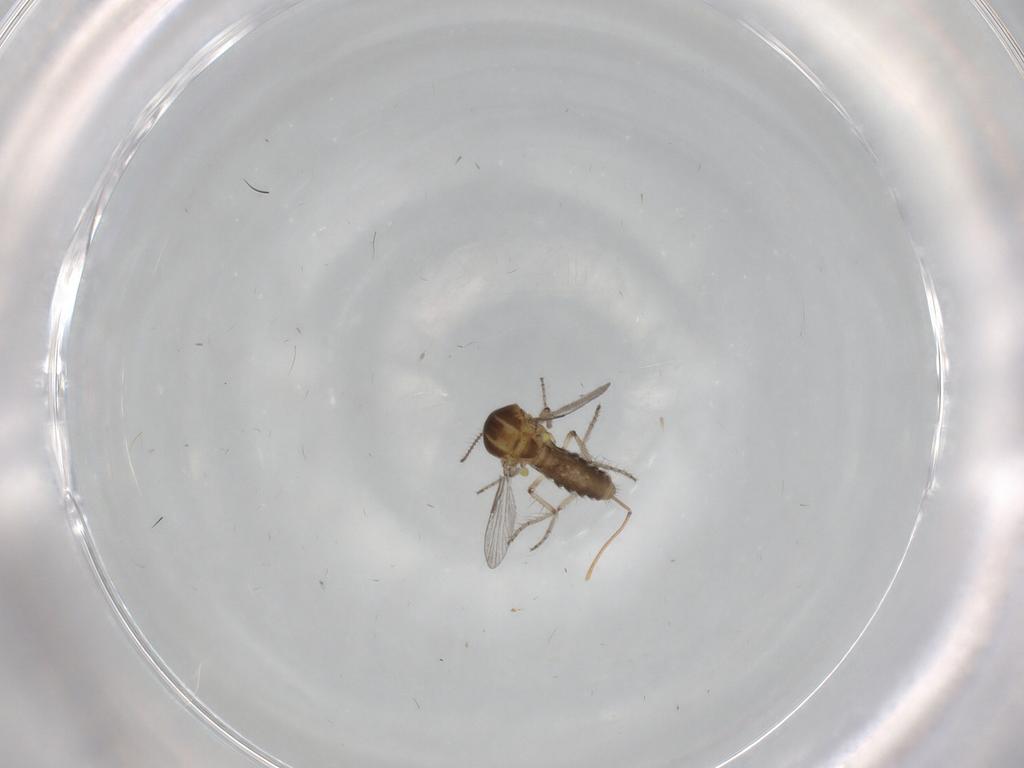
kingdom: Animalia
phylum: Arthropoda
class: Insecta
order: Diptera
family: Ceratopogonidae
